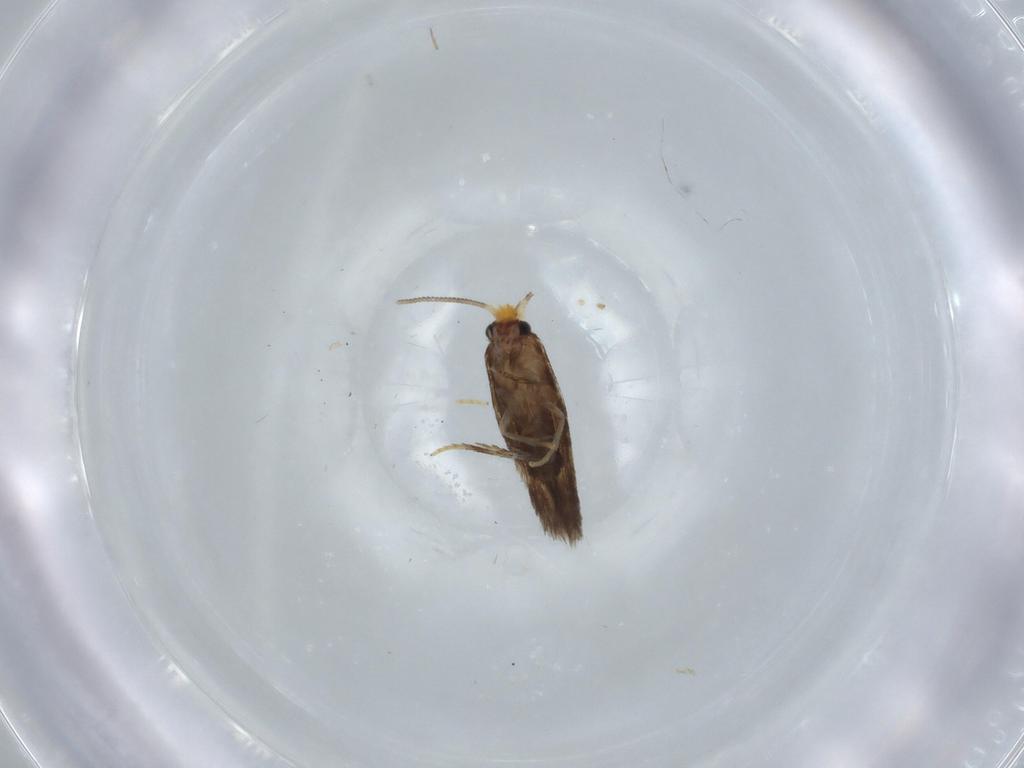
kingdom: Animalia
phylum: Arthropoda
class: Insecta
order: Lepidoptera
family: Nepticulidae
